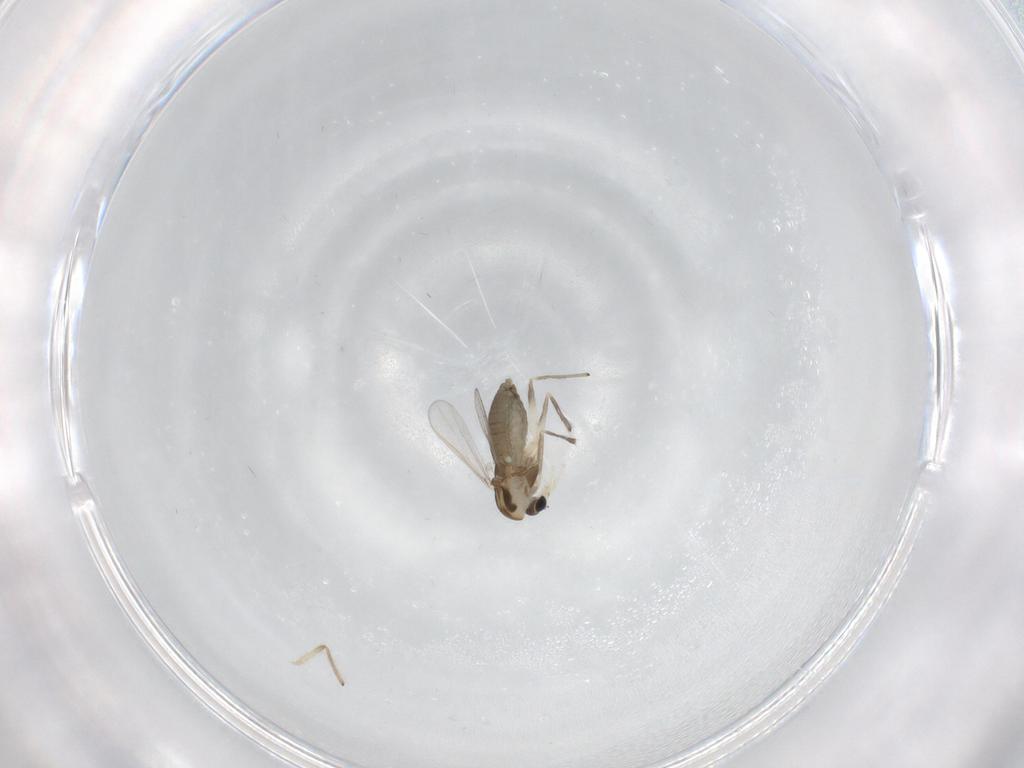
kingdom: Animalia
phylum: Arthropoda
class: Insecta
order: Diptera
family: Chironomidae
